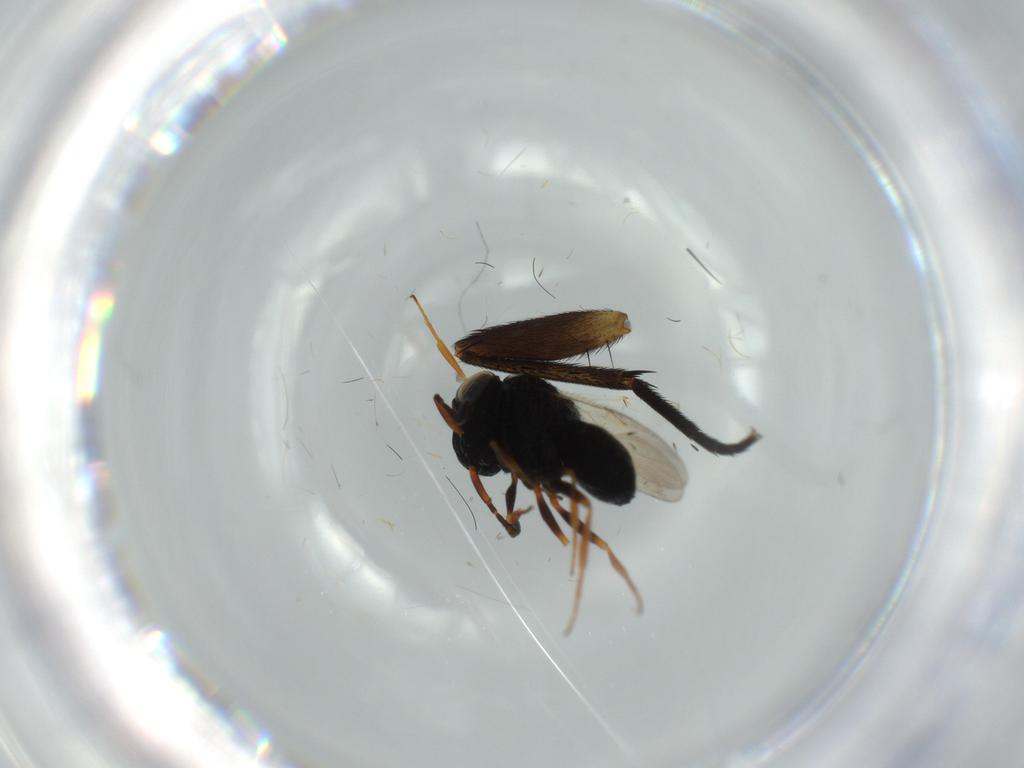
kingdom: Animalia
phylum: Arthropoda
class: Insecta
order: Hymenoptera
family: Scelionidae
